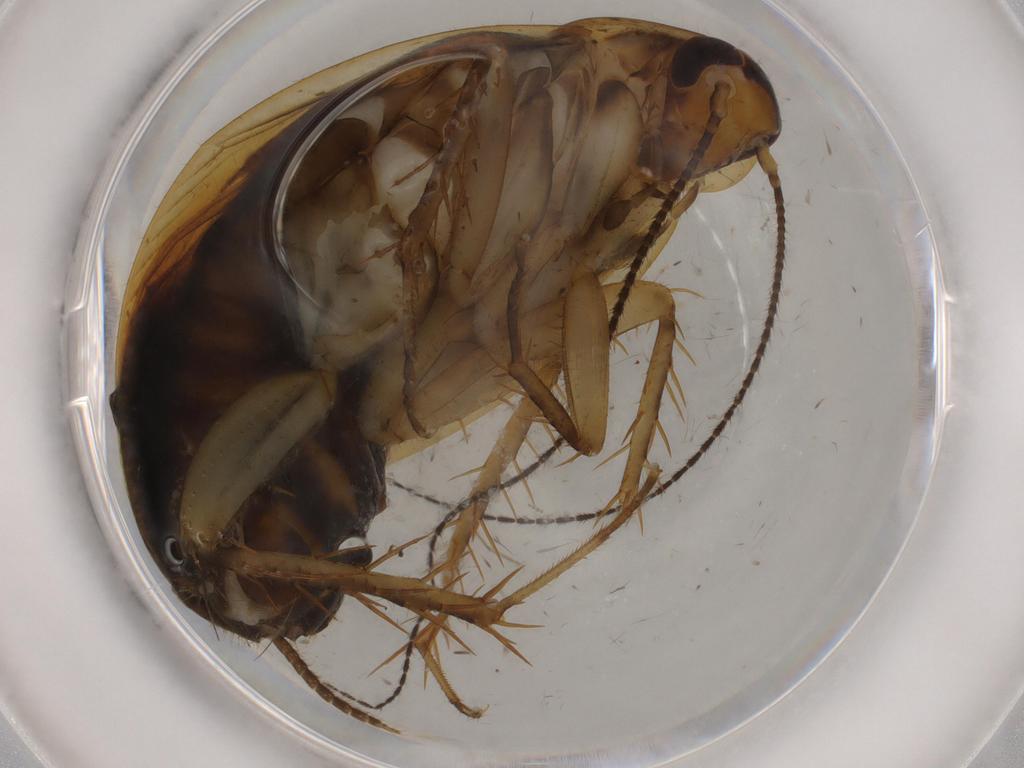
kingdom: Animalia
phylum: Arthropoda
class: Insecta
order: Blattodea
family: Ectobiidae
